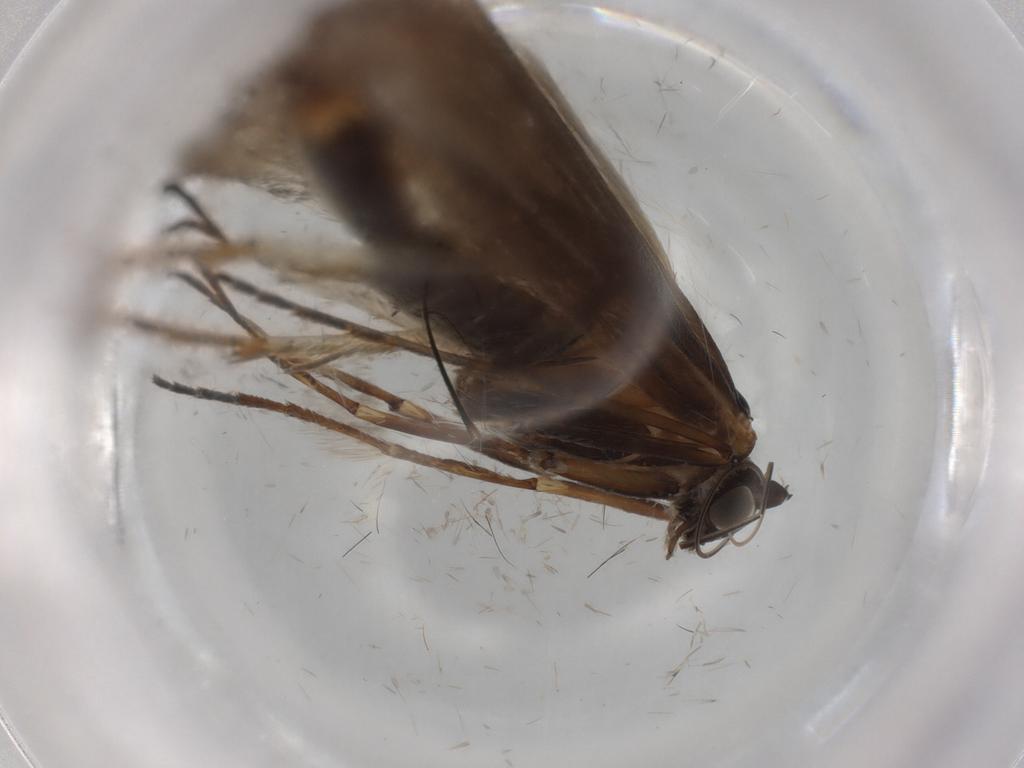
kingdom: Animalia
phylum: Arthropoda
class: Insecta
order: Lepidoptera
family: Adelidae
